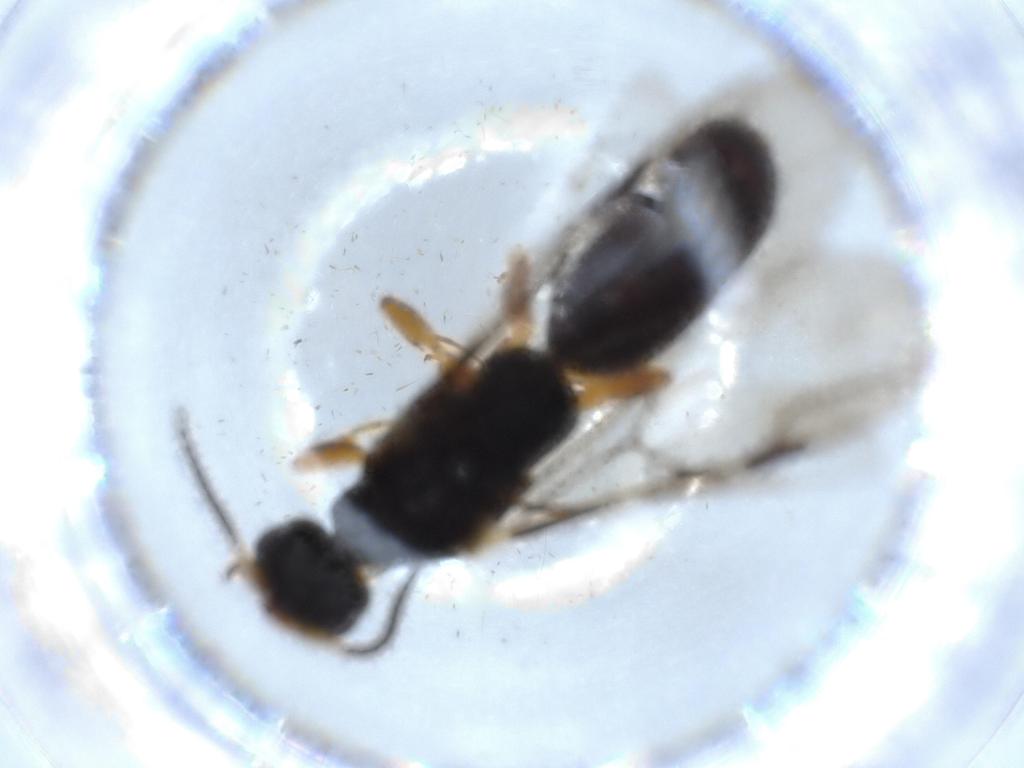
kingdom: Animalia
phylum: Arthropoda
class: Insecta
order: Hymenoptera
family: Bethylidae
